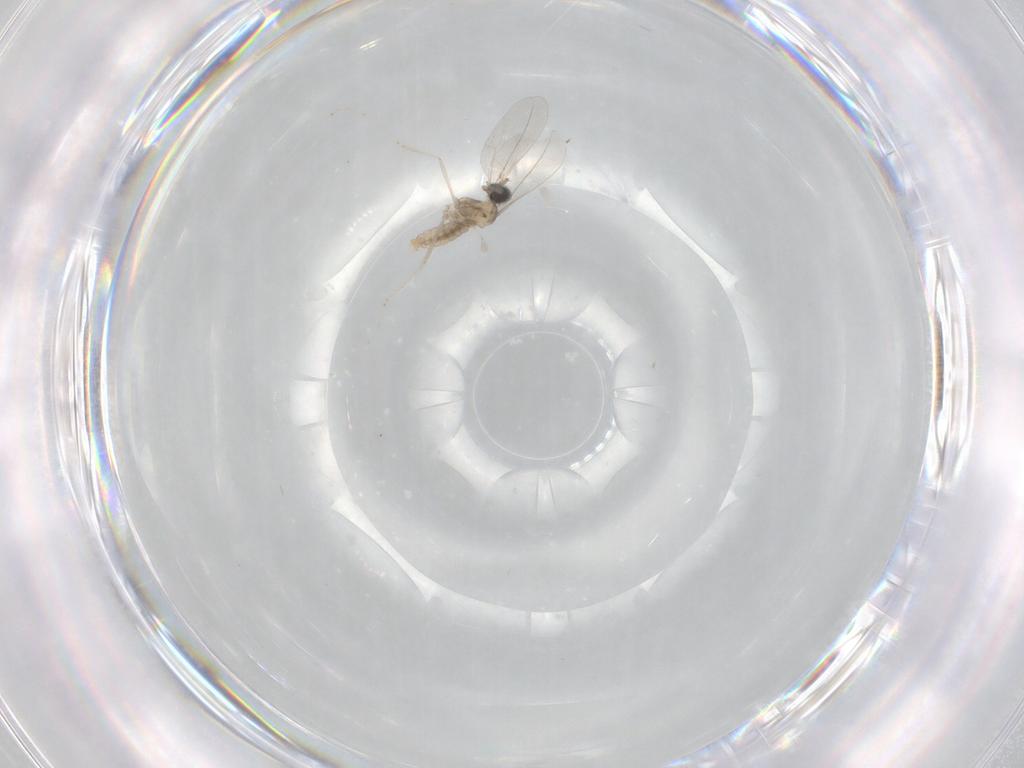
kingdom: Animalia
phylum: Arthropoda
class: Insecta
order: Diptera
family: Cecidomyiidae
